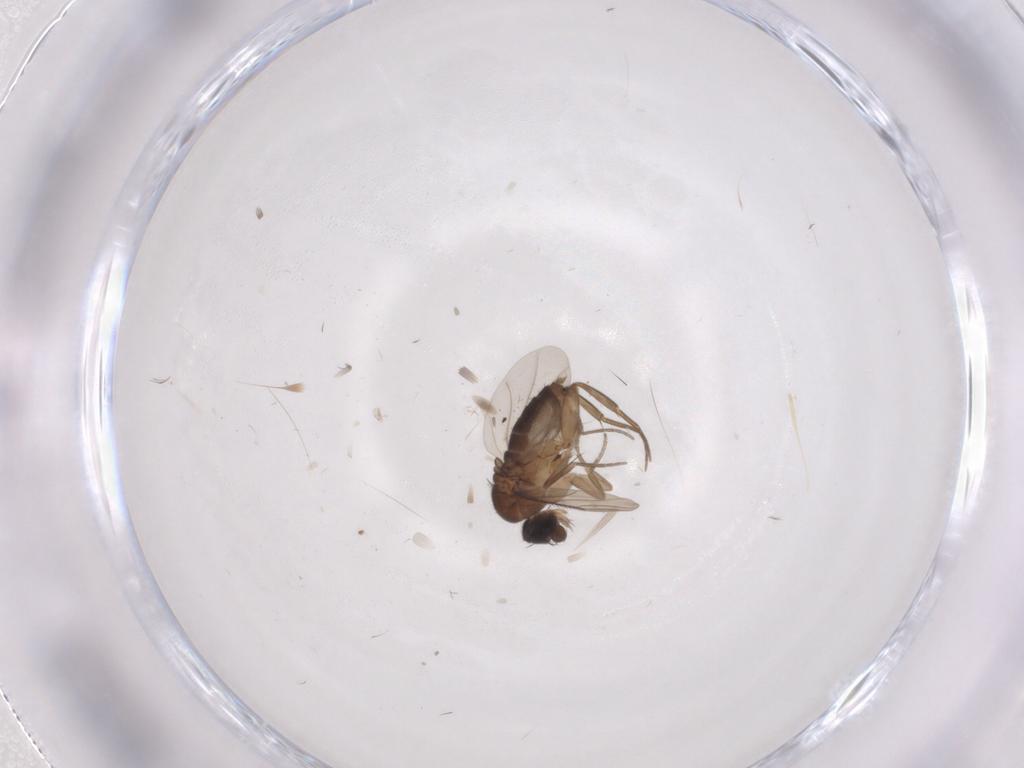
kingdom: Animalia
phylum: Arthropoda
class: Insecta
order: Diptera
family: Phoridae
